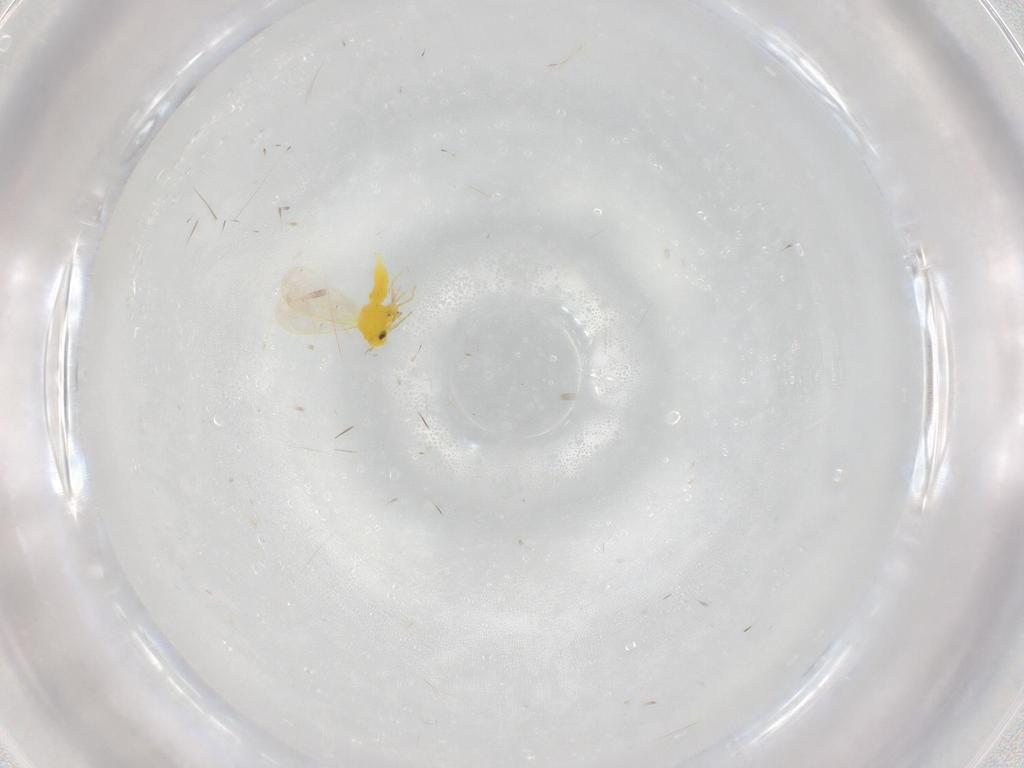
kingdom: Animalia
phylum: Arthropoda
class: Insecta
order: Hemiptera
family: Aleyrodidae
